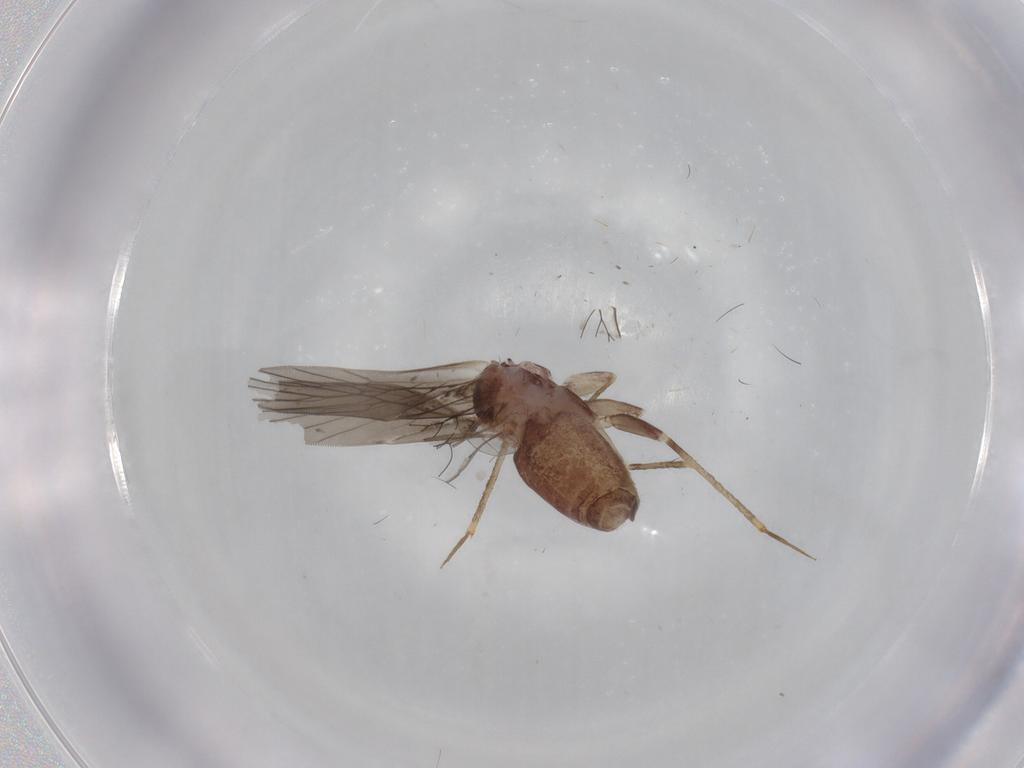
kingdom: Animalia
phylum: Arthropoda
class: Insecta
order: Psocodea
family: Lepidopsocidae
